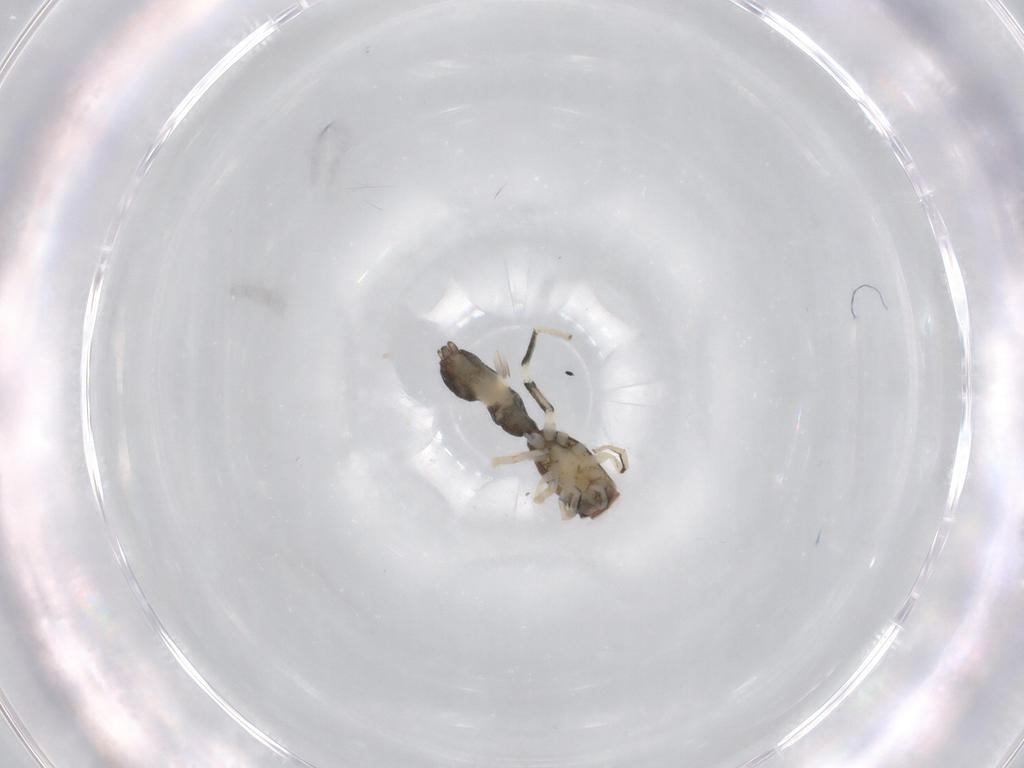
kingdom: Animalia
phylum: Arthropoda
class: Arachnida
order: Araneae
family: Salticidae
